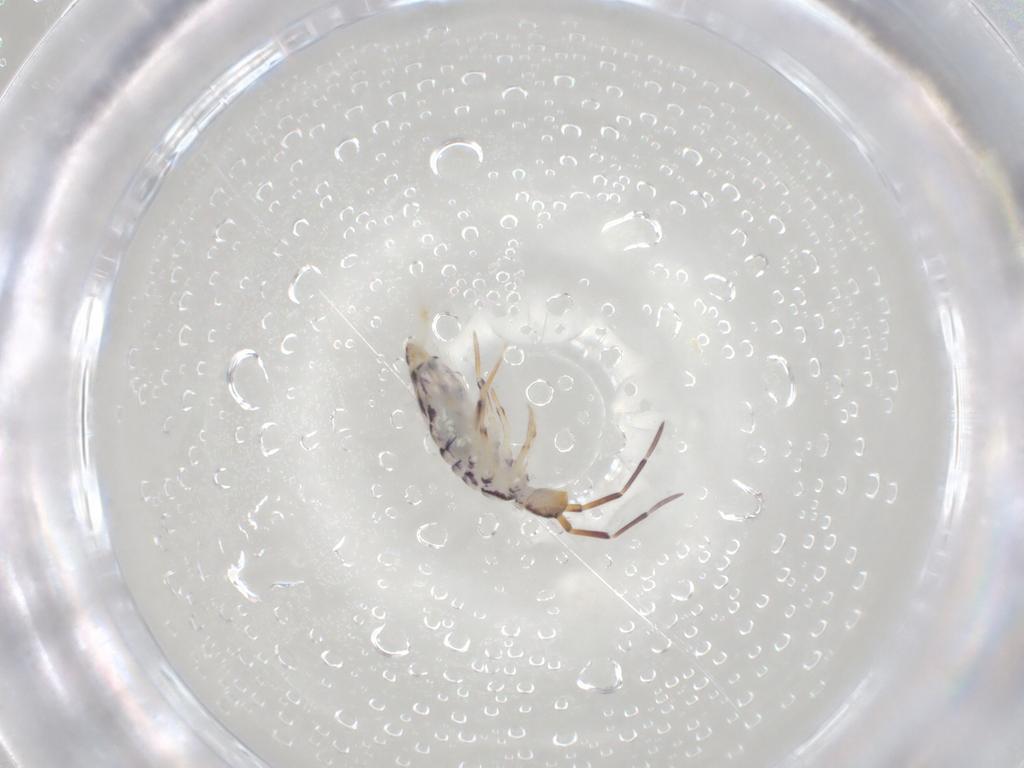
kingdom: Animalia
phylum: Arthropoda
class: Collembola
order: Entomobryomorpha
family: Entomobryidae
